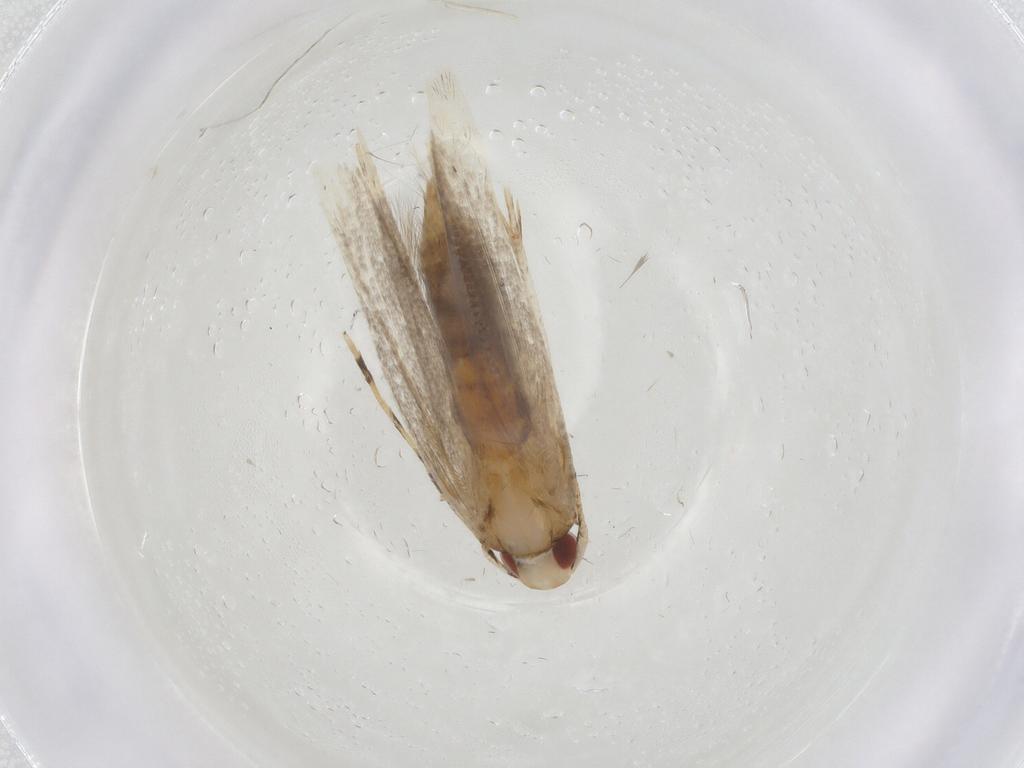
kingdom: Animalia
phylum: Arthropoda
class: Insecta
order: Lepidoptera
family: Cosmopterigidae
